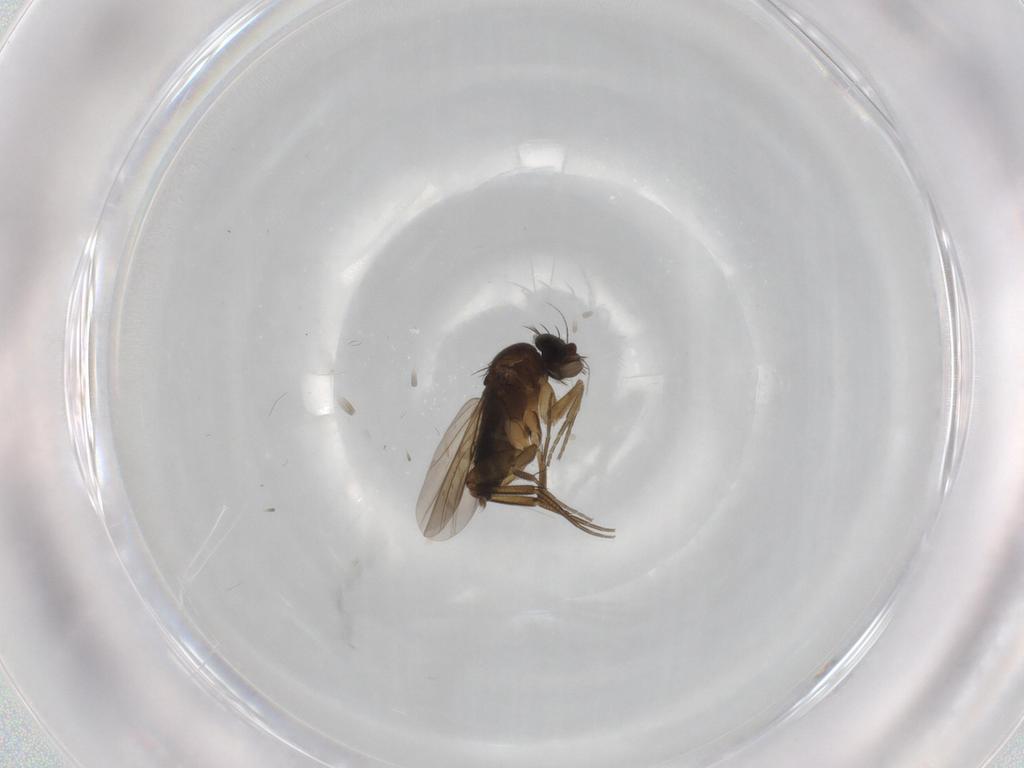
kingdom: Animalia
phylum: Arthropoda
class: Insecta
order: Diptera
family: Phoridae
